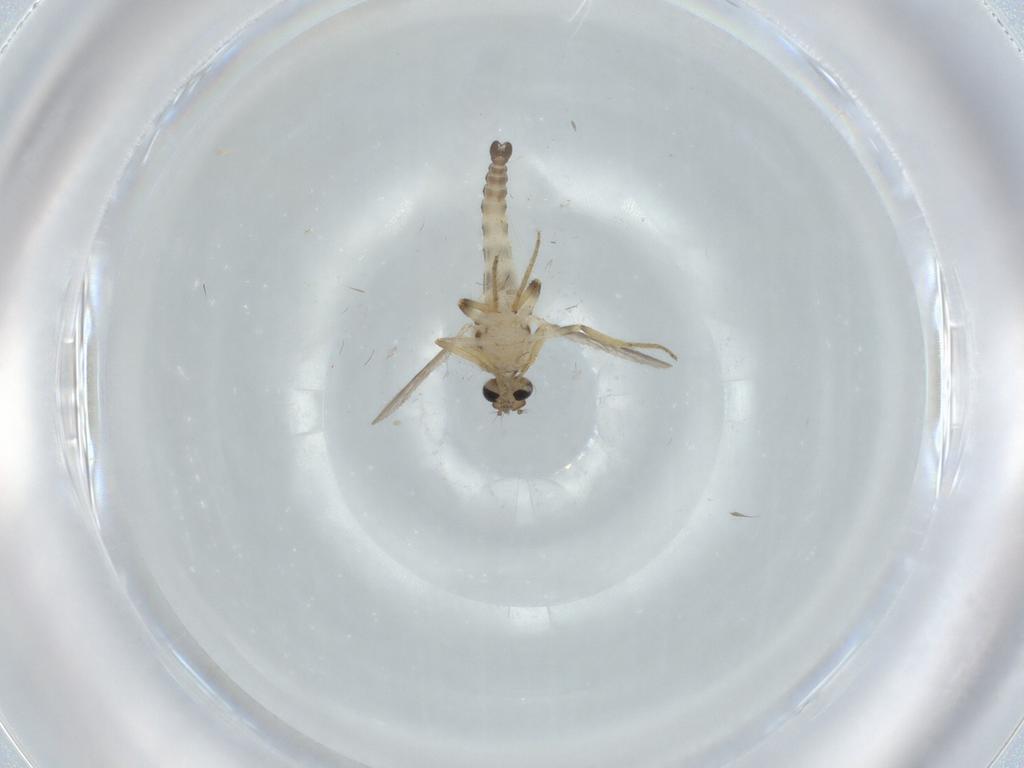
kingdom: Animalia
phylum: Arthropoda
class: Insecta
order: Diptera
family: Ceratopogonidae
